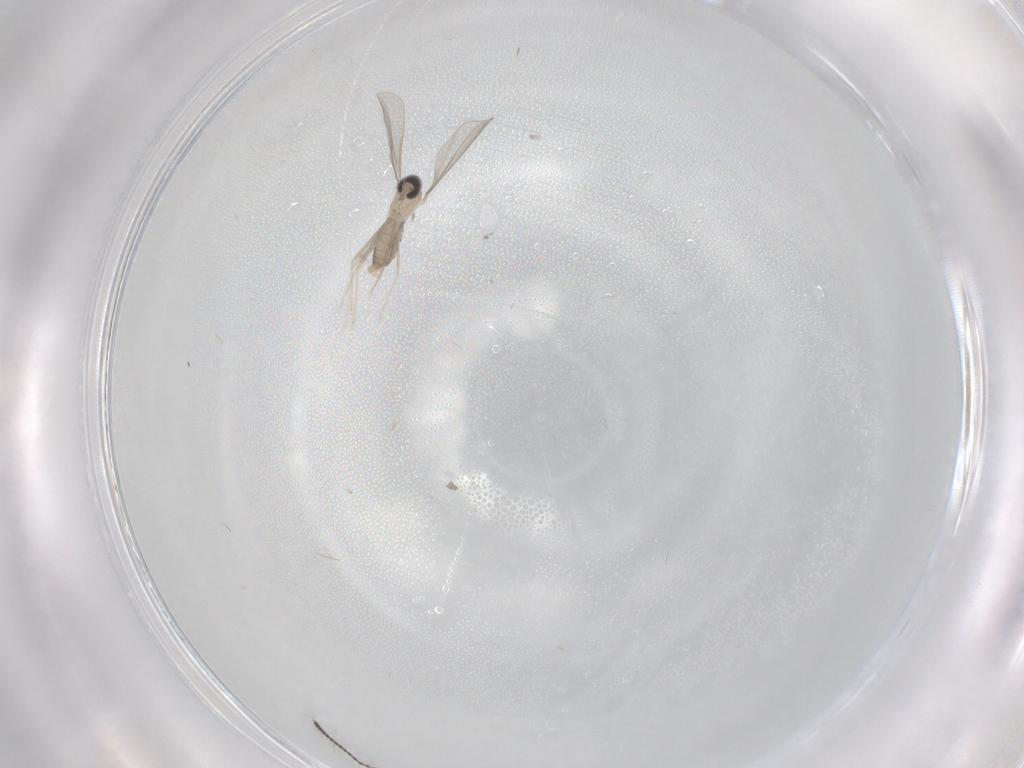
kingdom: Animalia
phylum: Arthropoda
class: Insecta
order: Diptera
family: Cecidomyiidae
